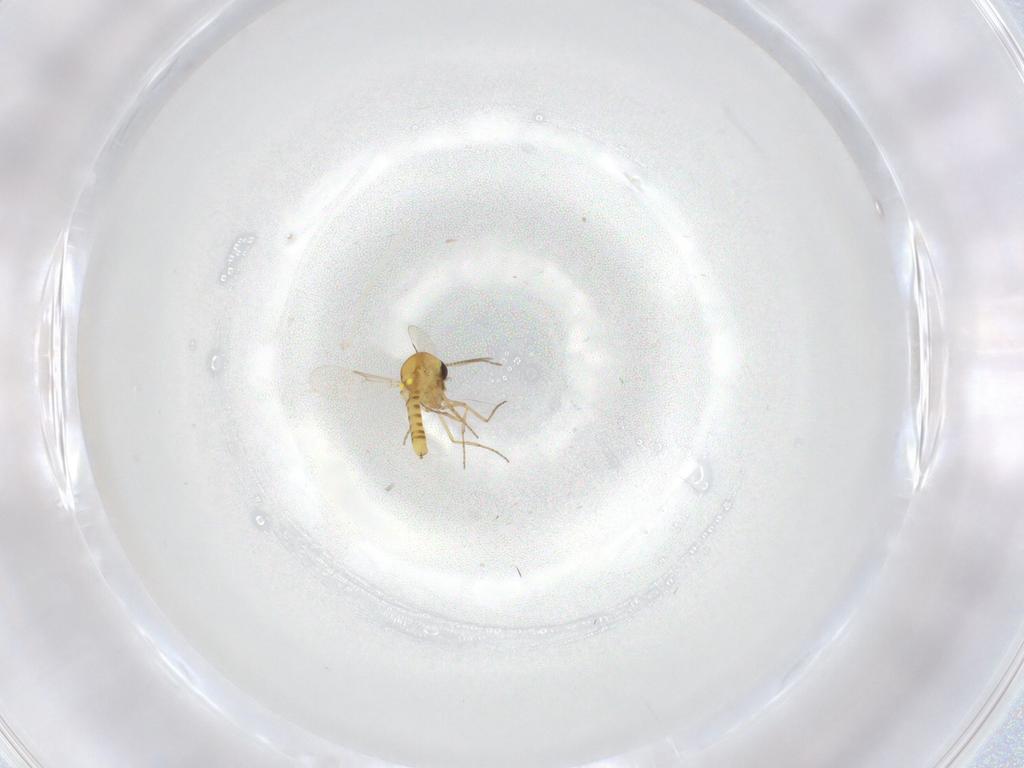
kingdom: Animalia
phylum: Arthropoda
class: Insecta
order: Diptera
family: Ceratopogonidae
